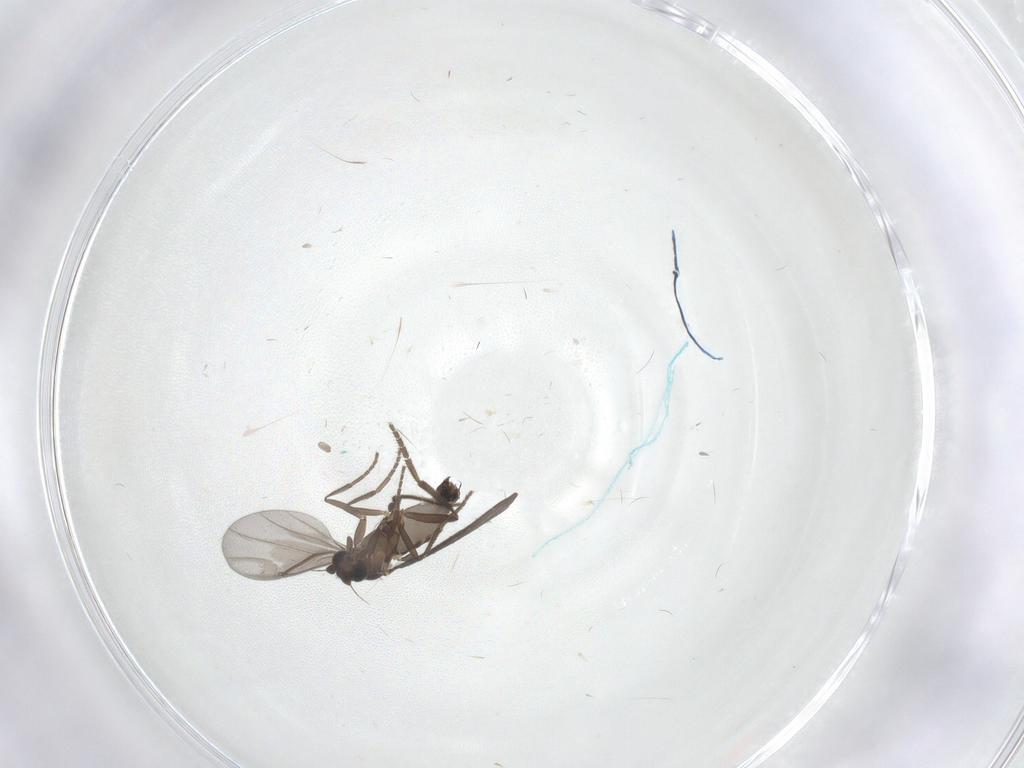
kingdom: Animalia
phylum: Arthropoda
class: Insecta
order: Diptera
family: Phoridae
